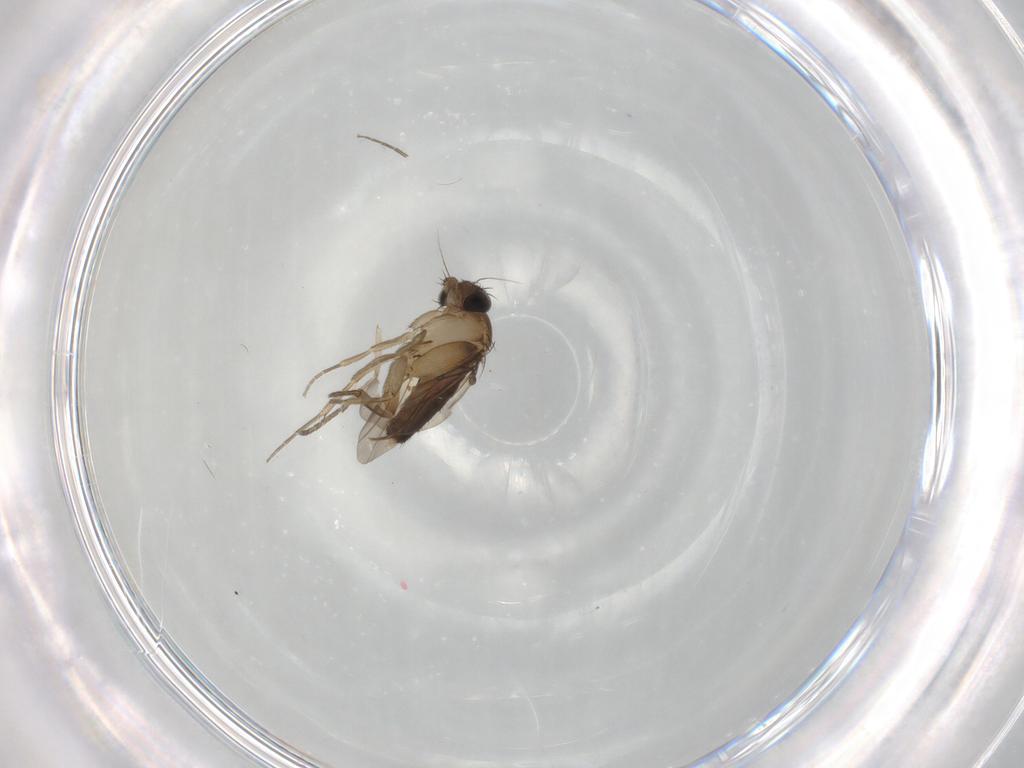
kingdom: Animalia
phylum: Arthropoda
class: Insecta
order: Diptera
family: Phoridae
